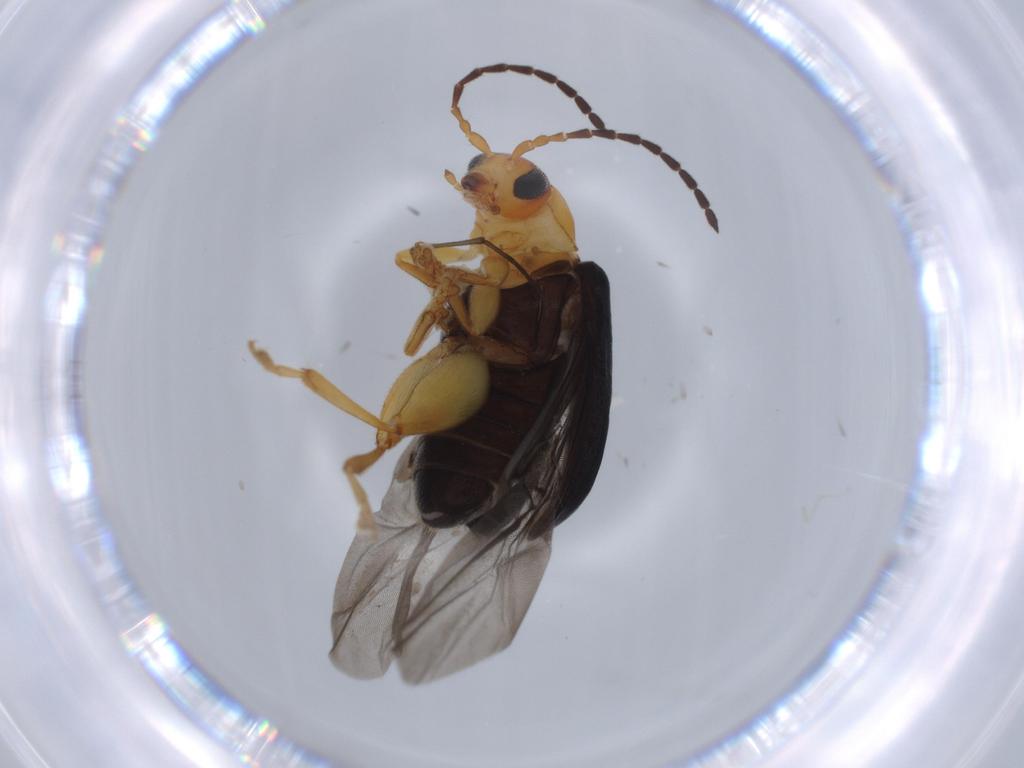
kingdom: Animalia
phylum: Arthropoda
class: Insecta
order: Coleoptera
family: Chrysomelidae
